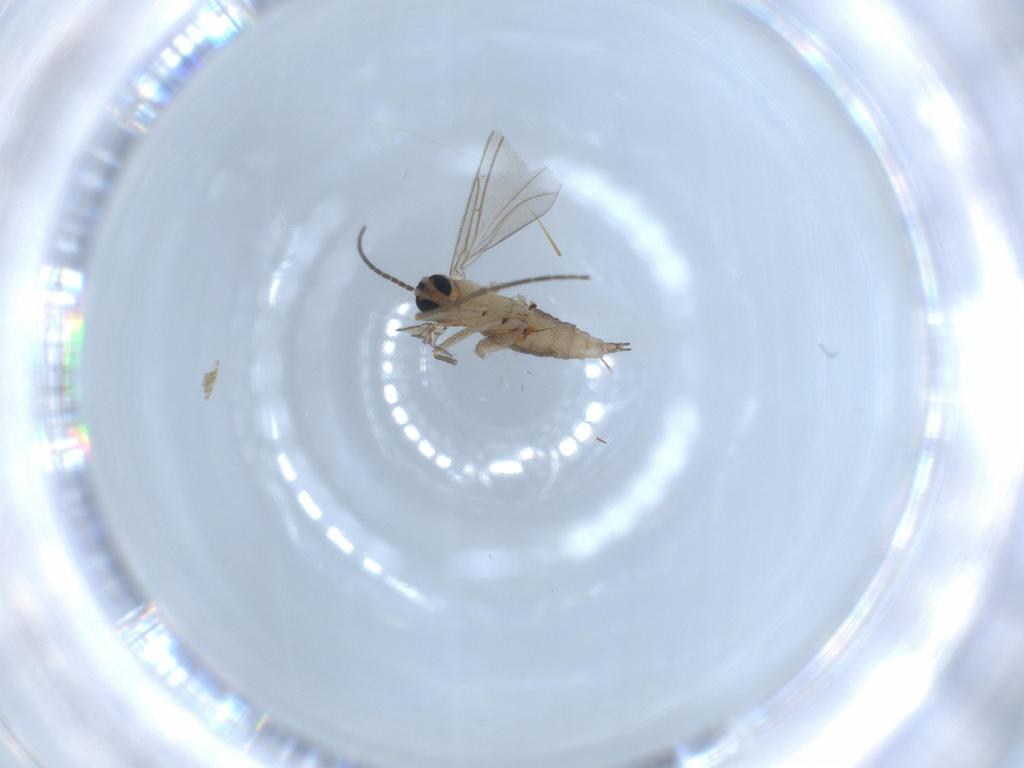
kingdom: Animalia
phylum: Arthropoda
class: Insecta
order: Diptera
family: Sciaridae
